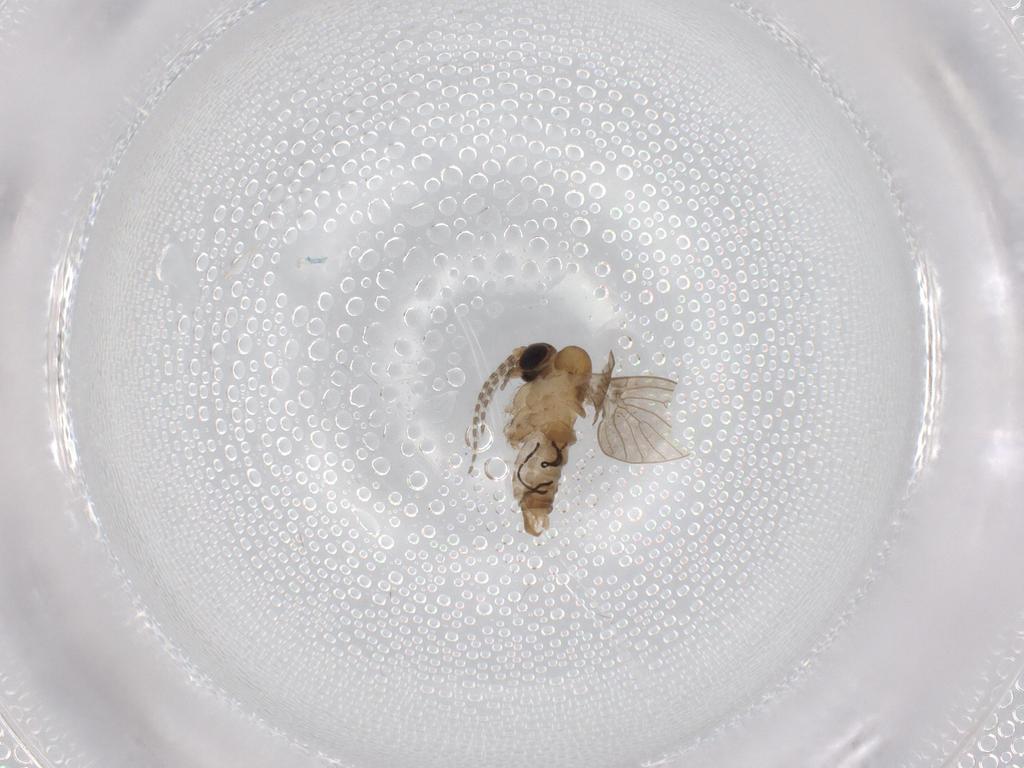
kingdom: Animalia
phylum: Arthropoda
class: Insecta
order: Diptera
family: Cecidomyiidae
